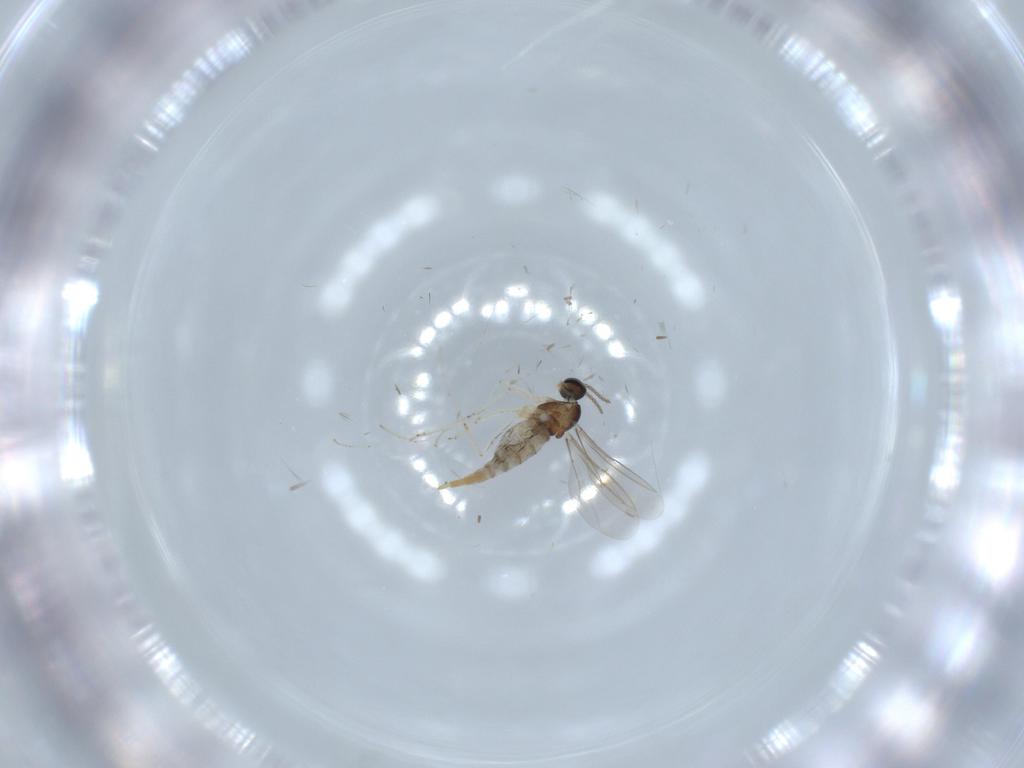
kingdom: Animalia
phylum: Arthropoda
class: Insecta
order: Diptera
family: Cecidomyiidae
